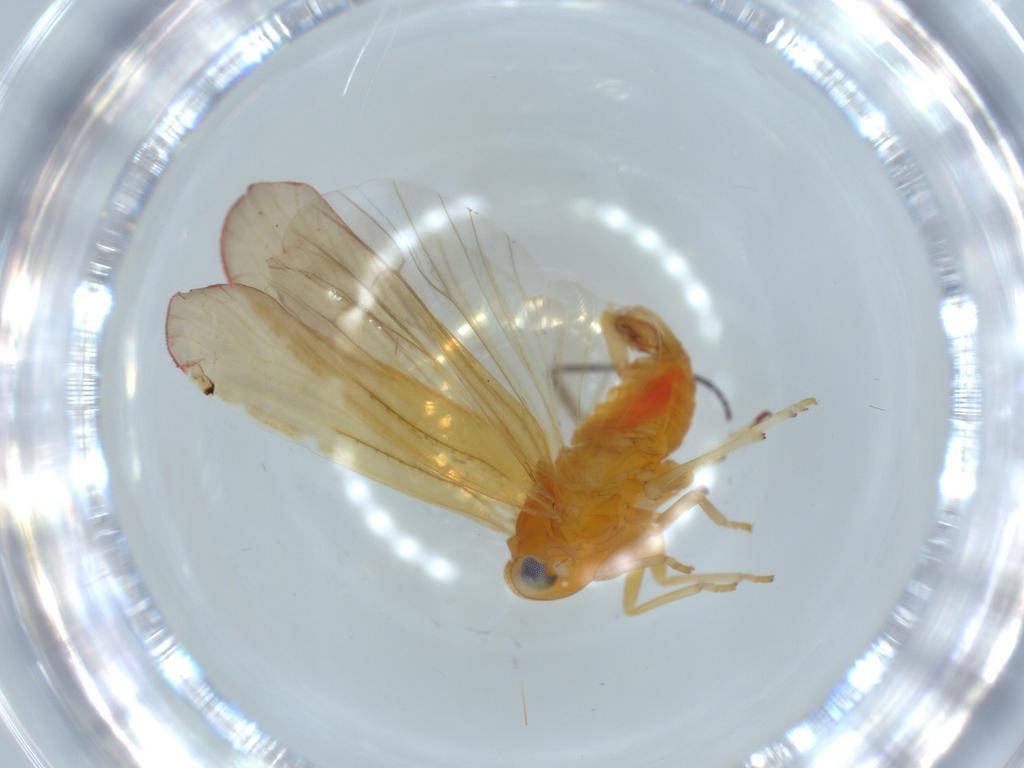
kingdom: Animalia
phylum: Arthropoda
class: Insecta
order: Hemiptera
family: Derbidae
